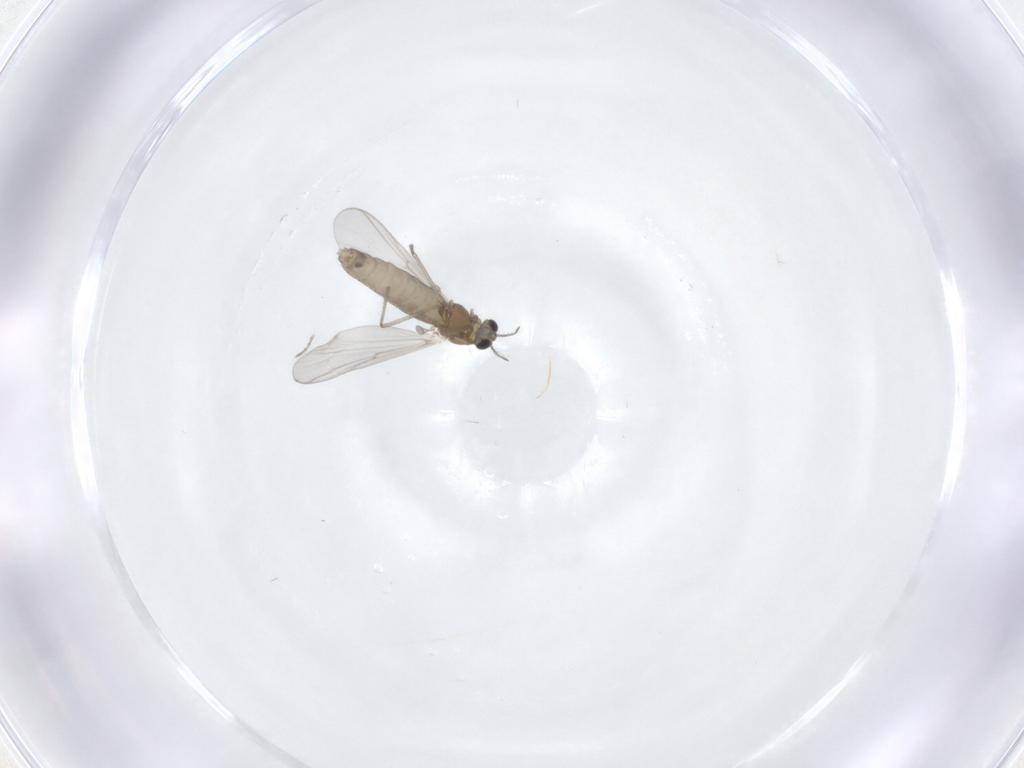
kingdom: Animalia
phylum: Arthropoda
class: Insecta
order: Diptera
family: Chironomidae
